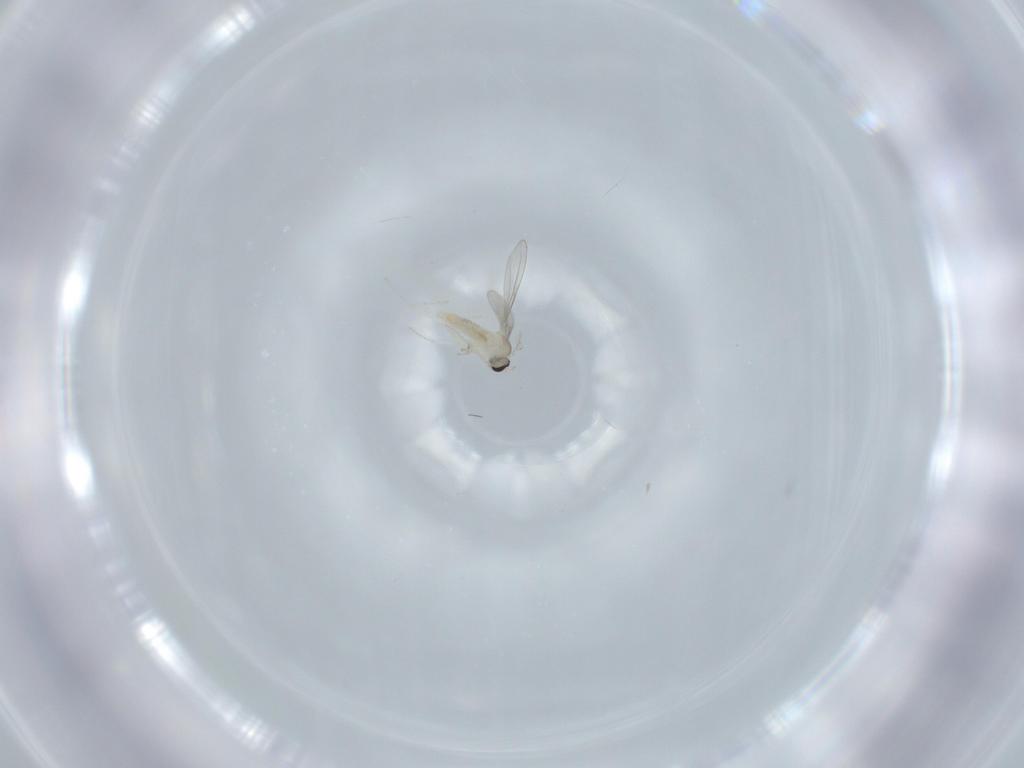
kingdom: Animalia
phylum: Arthropoda
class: Insecta
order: Diptera
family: Cecidomyiidae
